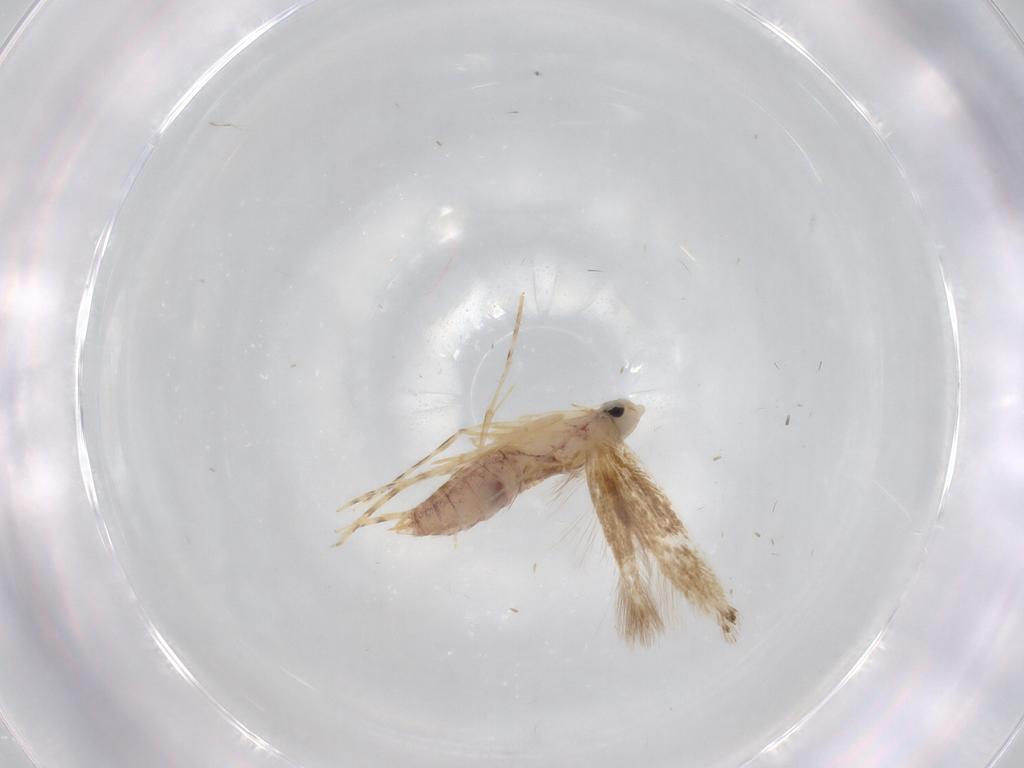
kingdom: Animalia
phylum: Arthropoda
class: Insecta
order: Lepidoptera
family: Lyonetiidae
